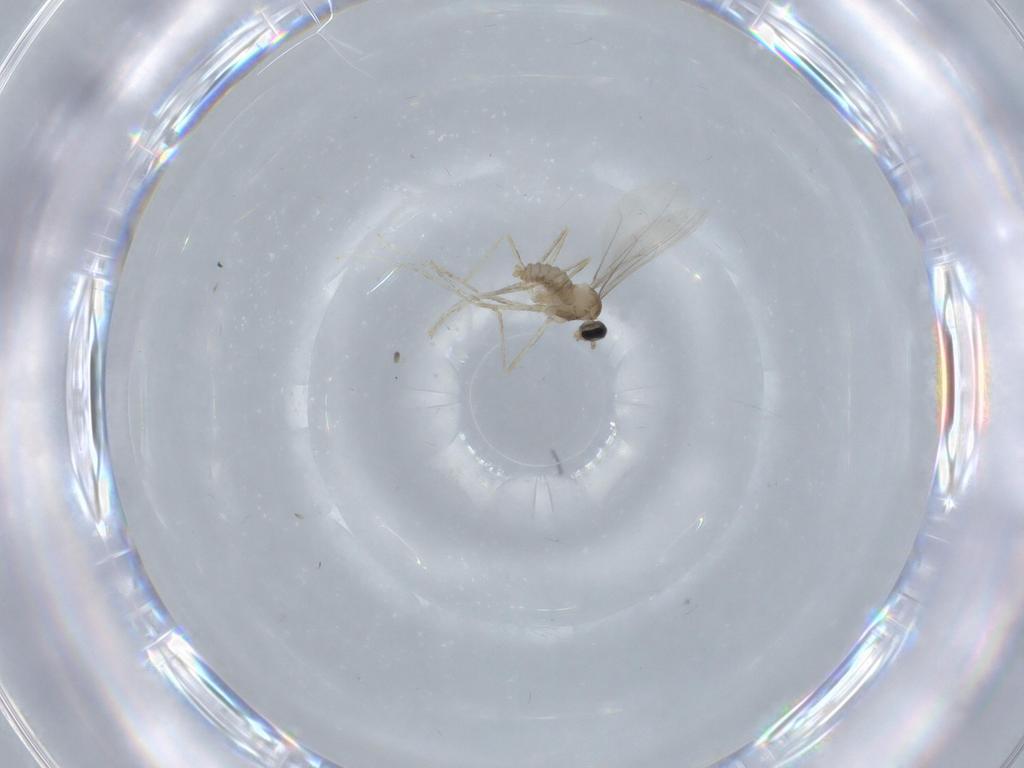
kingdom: Animalia
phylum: Arthropoda
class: Insecta
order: Diptera
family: Cecidomyiidae
